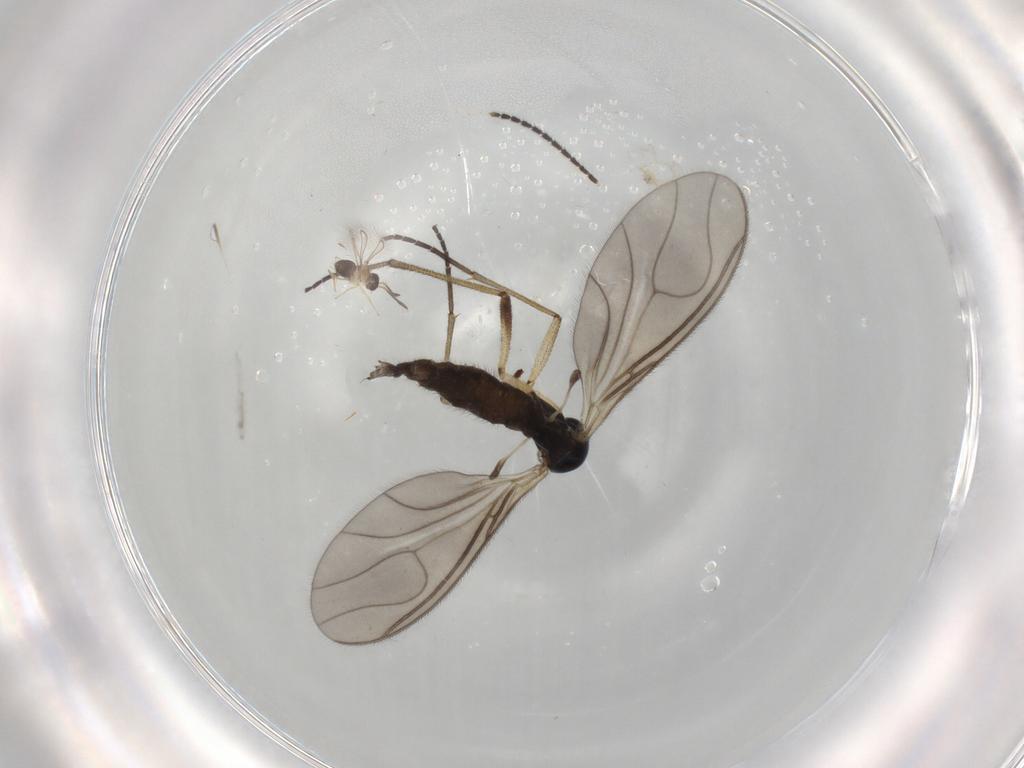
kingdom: Animalia
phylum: Arthropoda
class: Insecta
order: Diptera
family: Sciaridae
